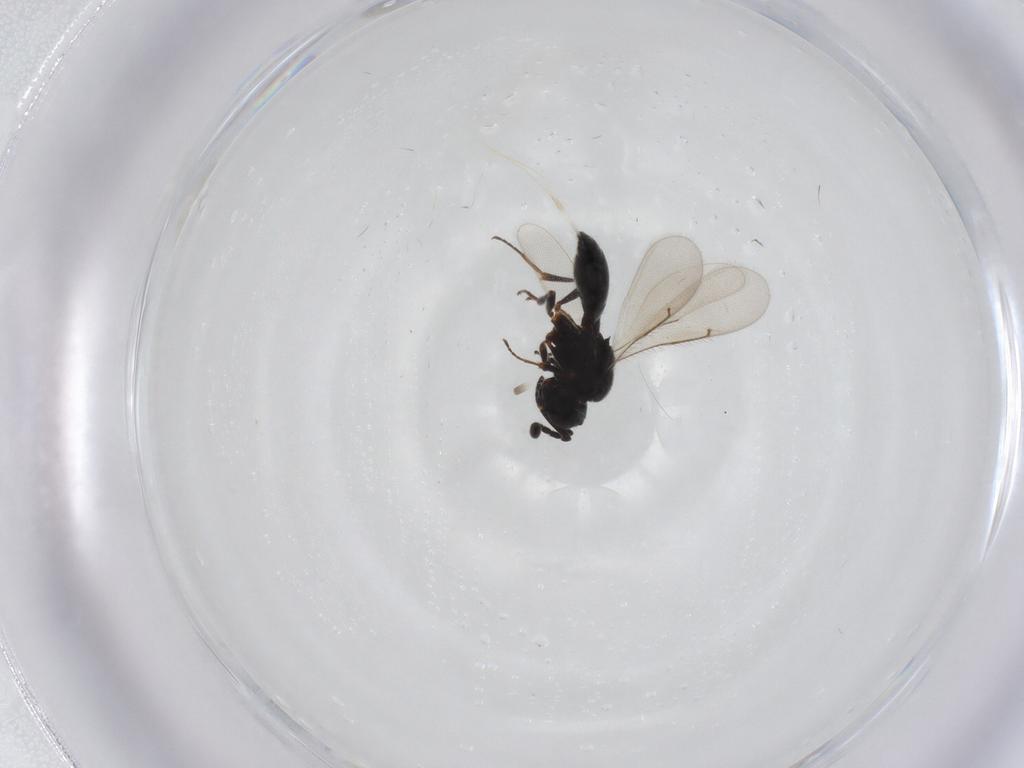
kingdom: Animalia
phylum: Arthropoda
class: Insecta
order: Hymenoptera
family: Scelionidae
